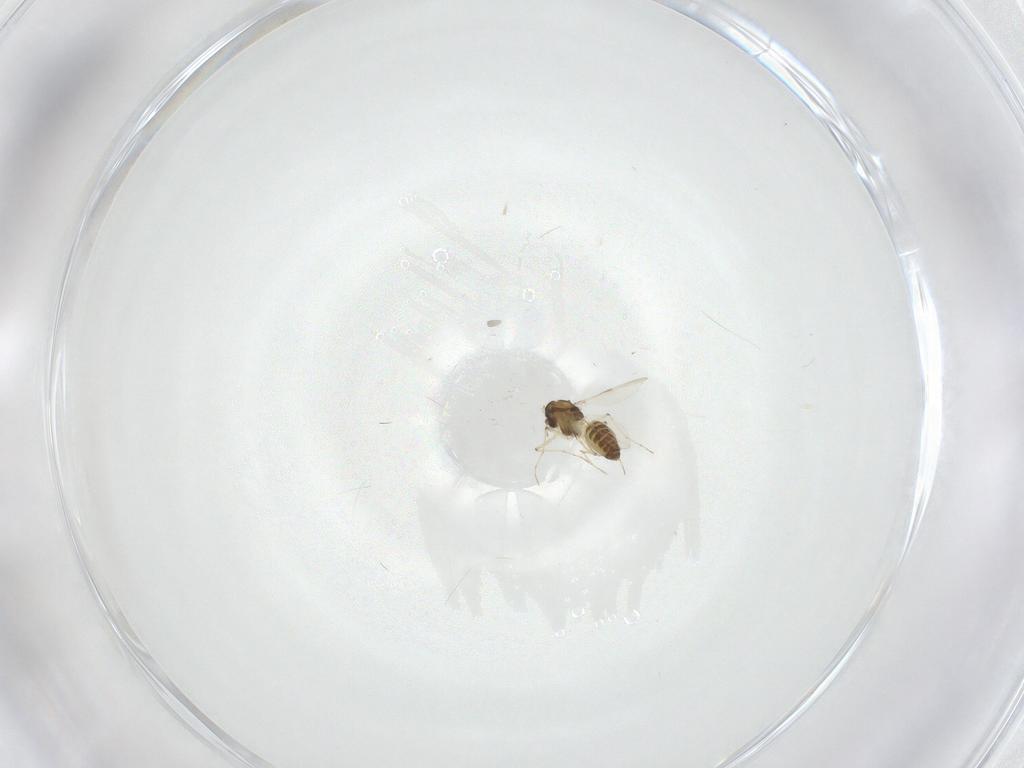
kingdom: Animalia
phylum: Arthropoda
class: Insecta
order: Diptera
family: Chironomidae
